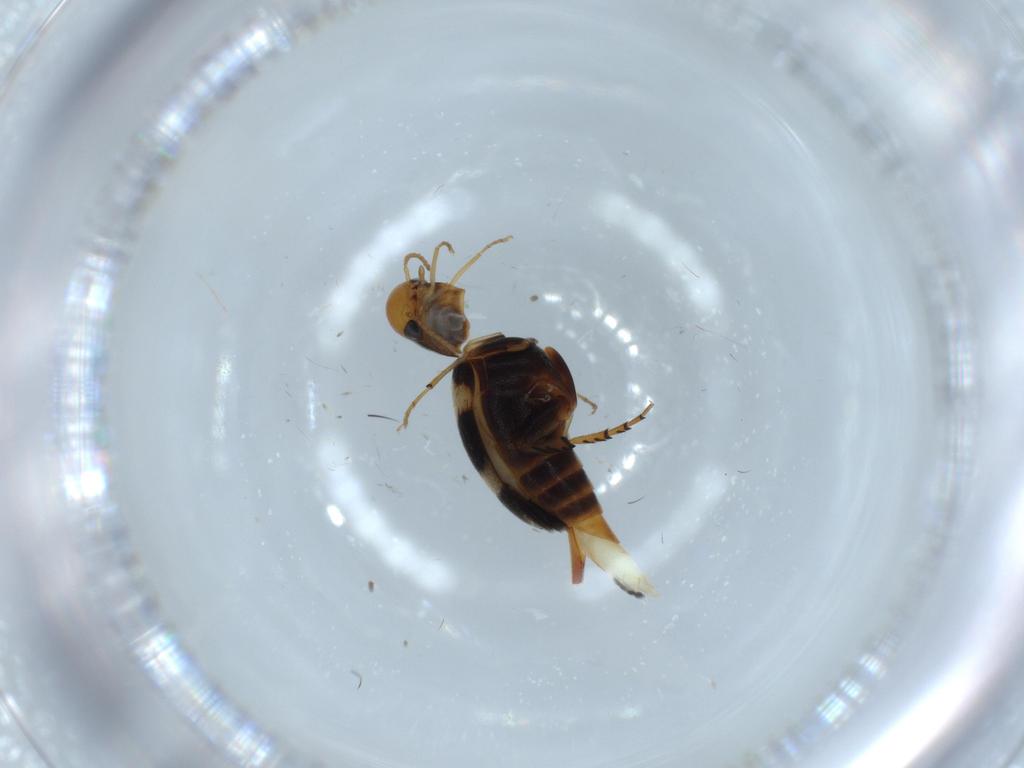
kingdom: Animalia
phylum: Arthropoda
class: Insecta
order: Coleoptera
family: Mordellidae
